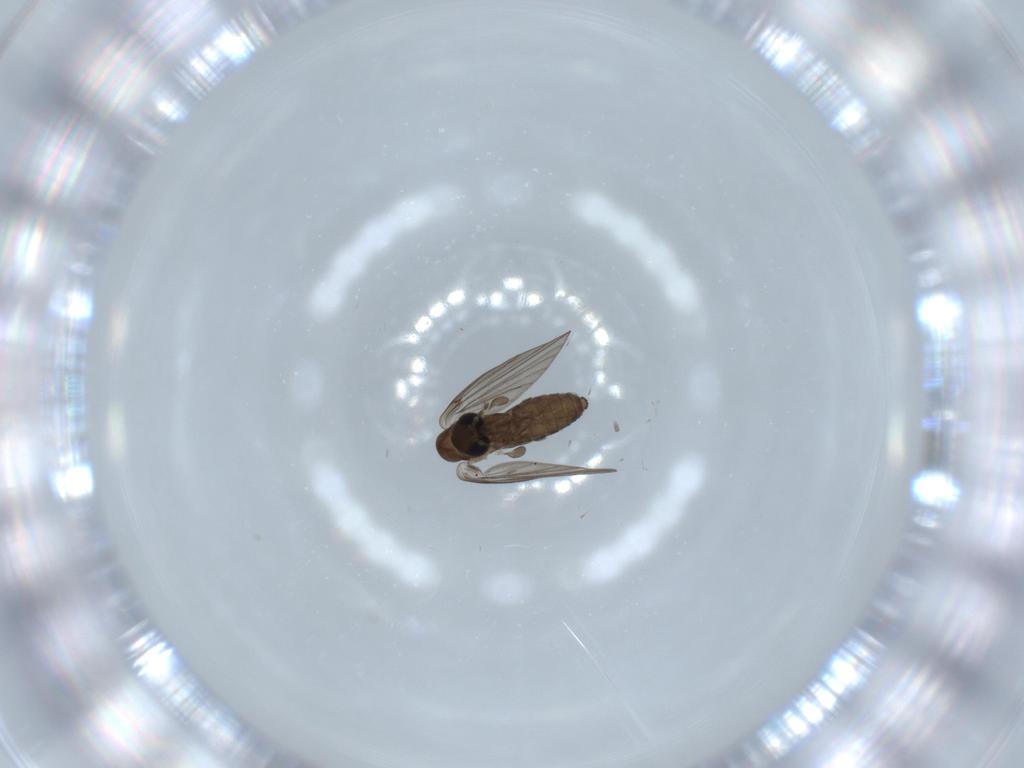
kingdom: Animalia
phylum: Arthropoda
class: Insecta
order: Diptera
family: Psychodidae
